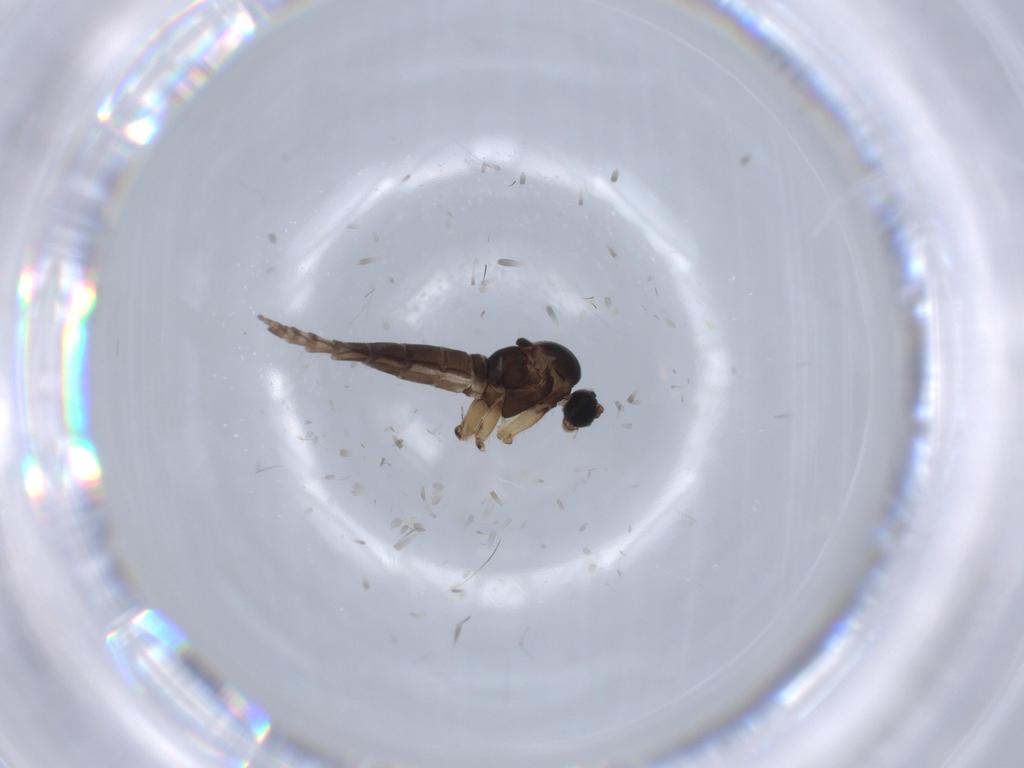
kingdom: Animalia
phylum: Arthropoda
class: Insecta
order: Diptera
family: Sciaridae
